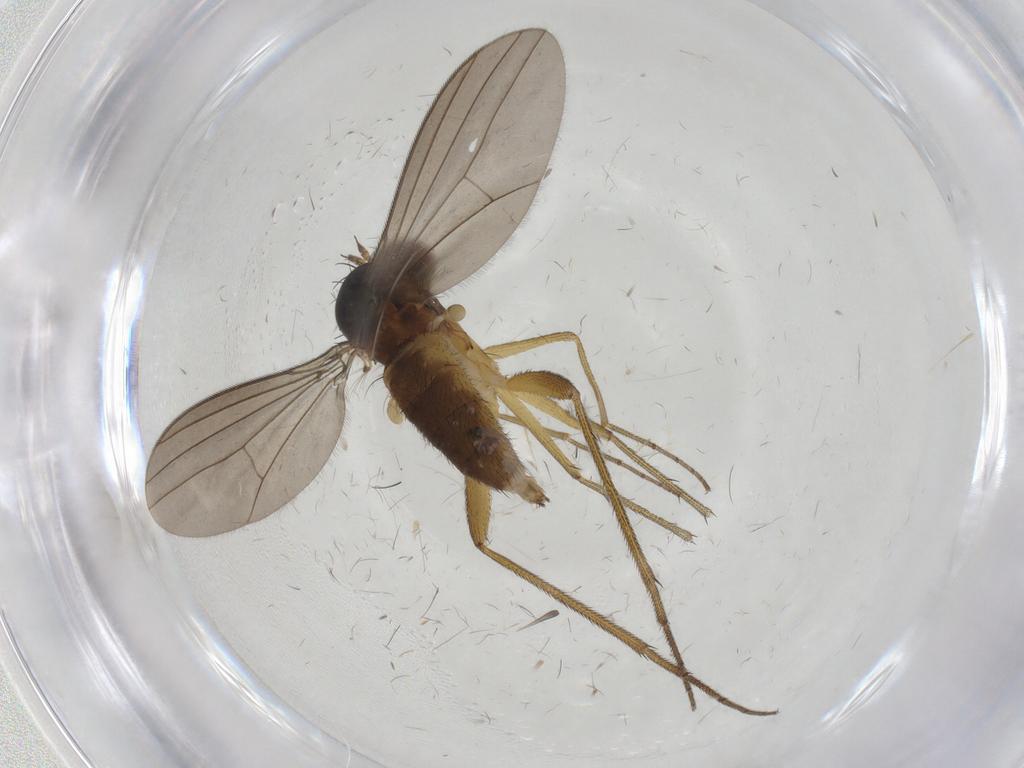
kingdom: Animalia
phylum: Arthropoda
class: Insecta
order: Diptera
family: Dolichopodidae
